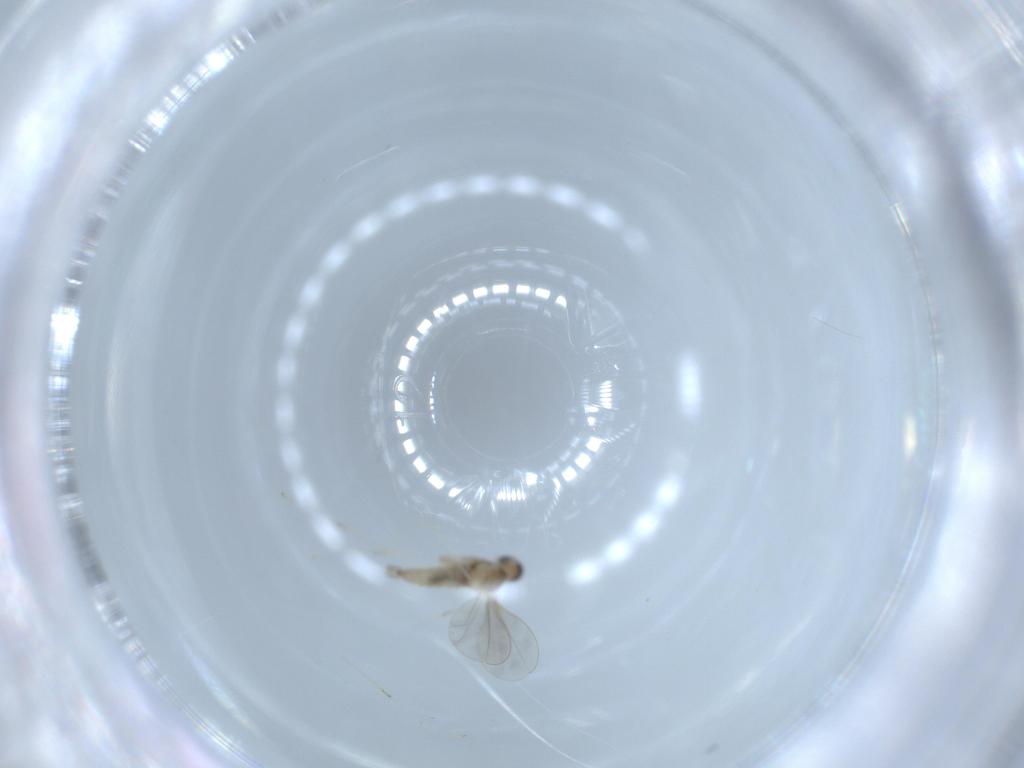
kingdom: Animalia
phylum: Arthropoda
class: Insecta
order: Diptera
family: Cecidomyiidae
